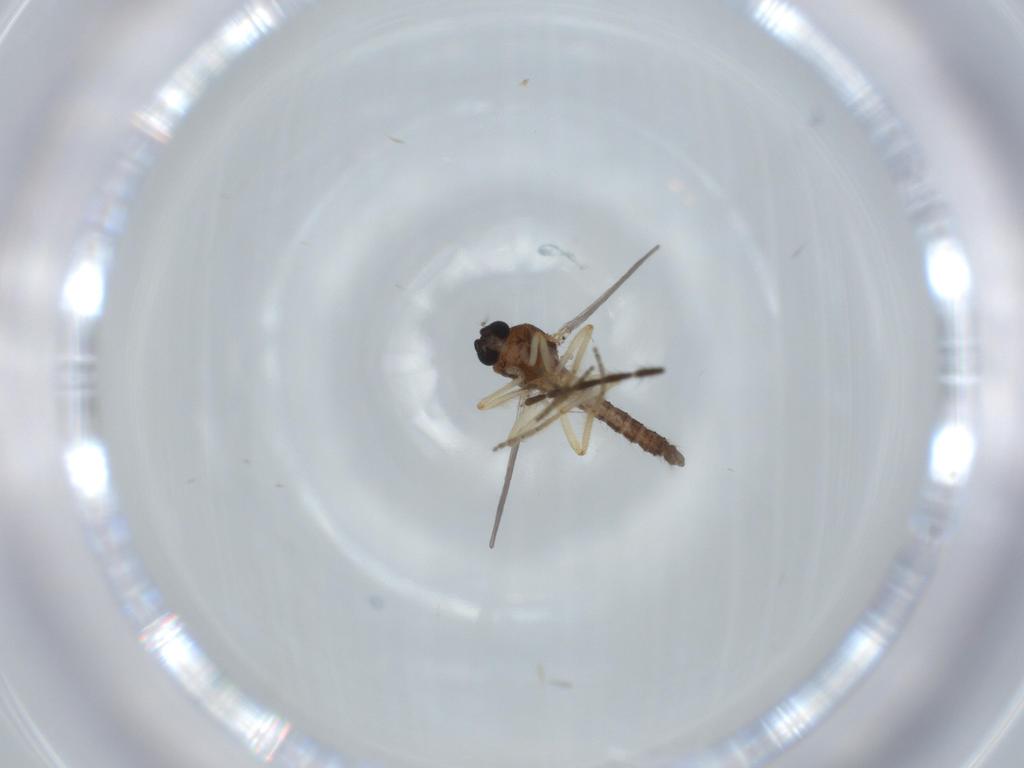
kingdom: Animalia
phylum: Arthropoda
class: Insecta
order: Diptera
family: Ceratopogonidae
